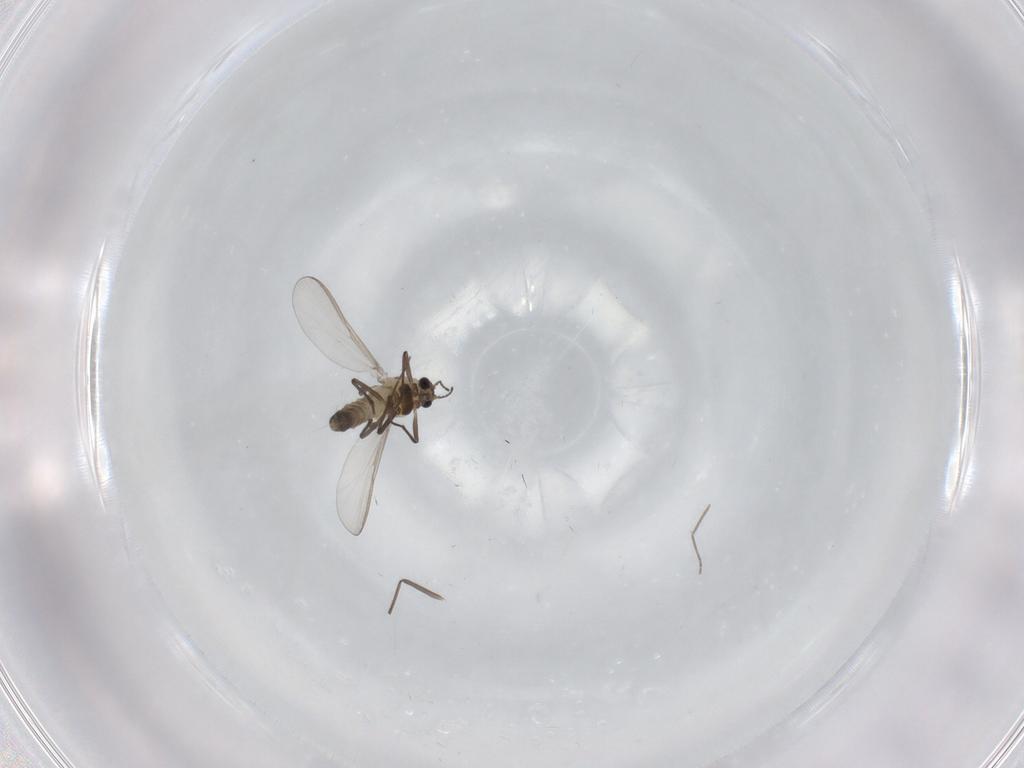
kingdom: Animalia
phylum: Arthropoda
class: Insecta
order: Diptera
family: Chironomidae
